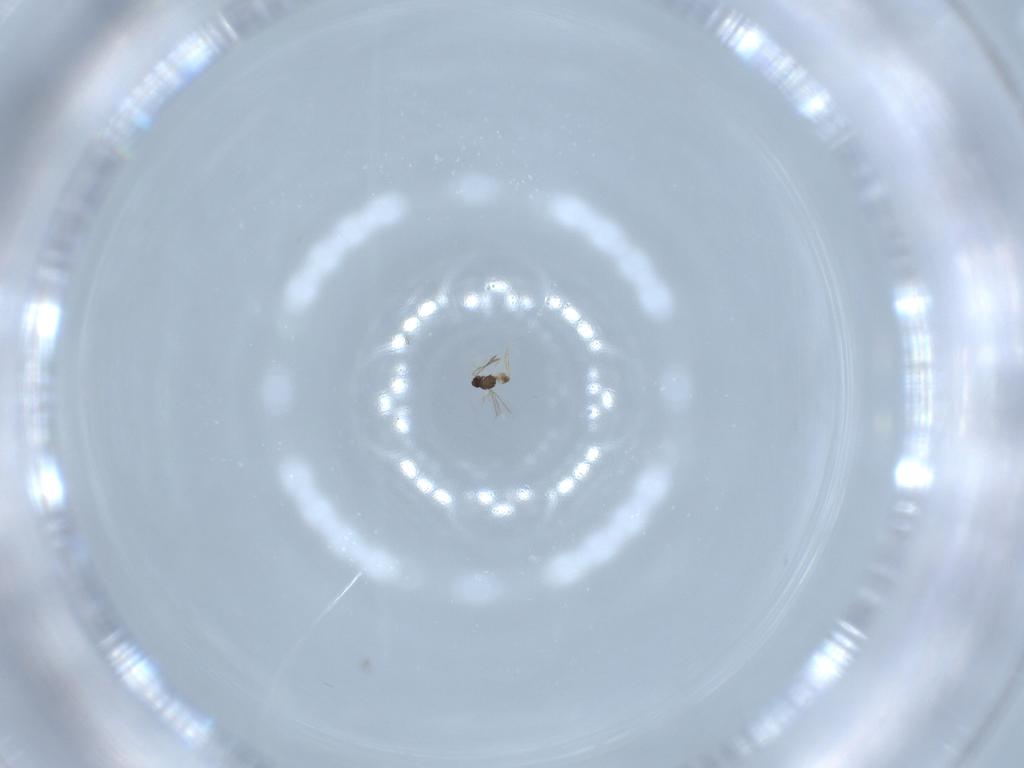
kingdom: Animalia
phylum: Arthropoda
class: Insecta
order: Hymenoptera
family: Mymaridae
